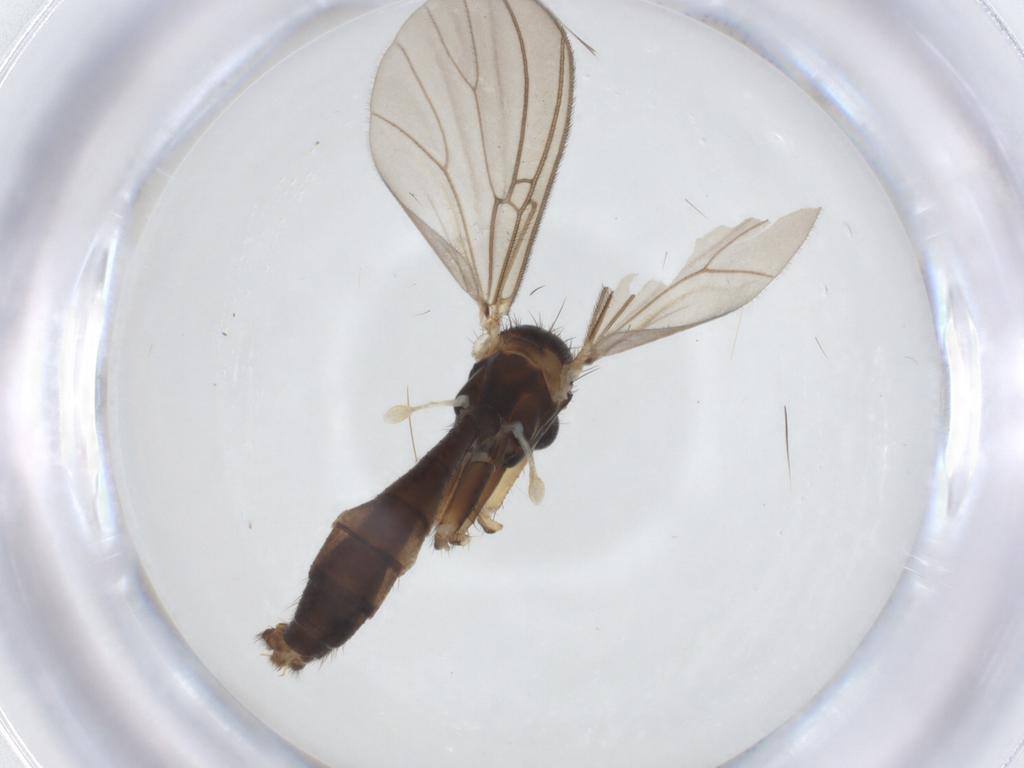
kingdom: Animalia
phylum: Arthropoda
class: Insecta
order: Diptera
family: Mycetophilidae
